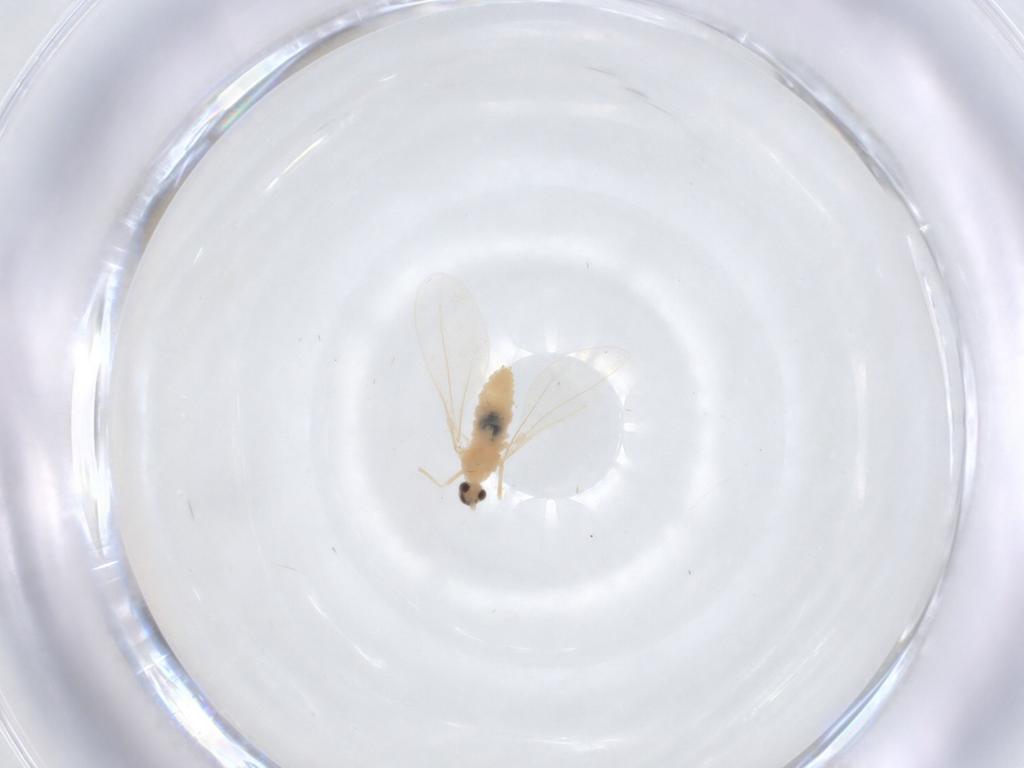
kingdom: Animalia
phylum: Arthropoda
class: Insecta
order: Diptera
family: Cecidomyiidae
